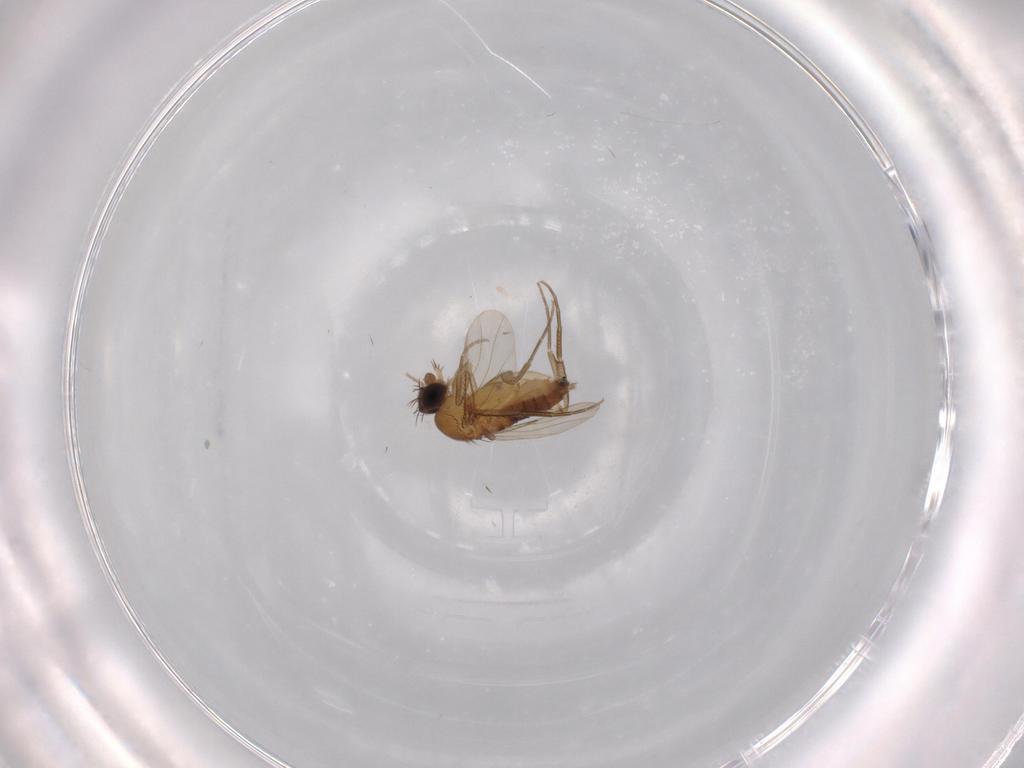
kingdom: Animalia
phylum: Arthropoda
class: Insecta
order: Diptera
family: Phoridae
